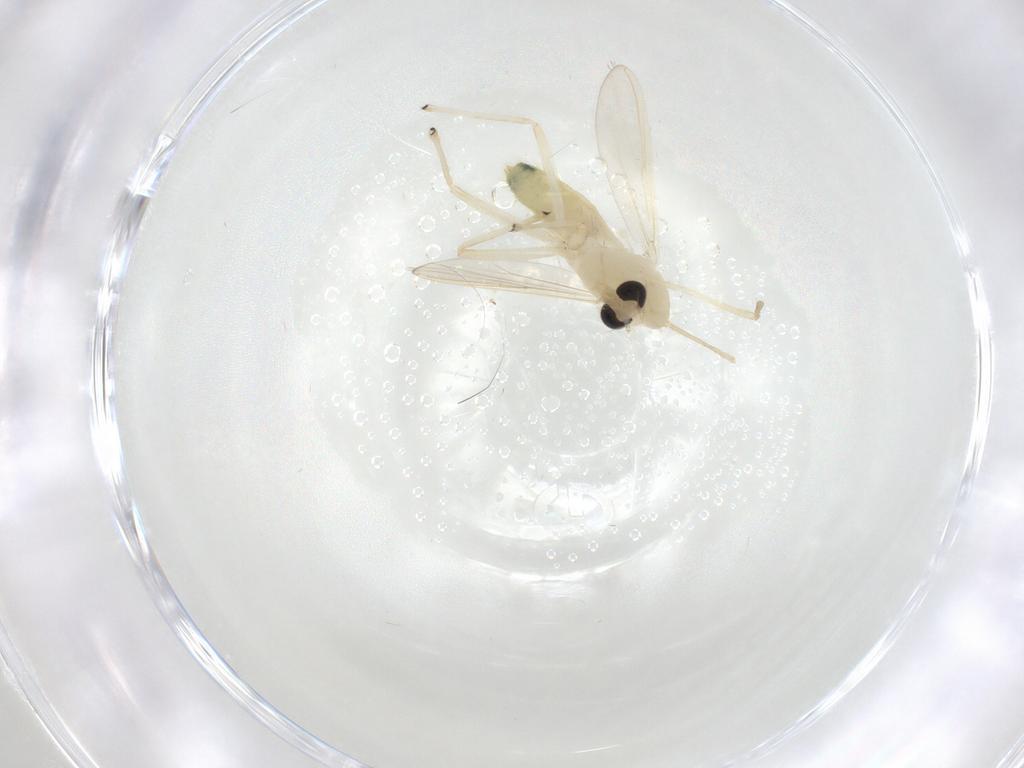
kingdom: Animalia
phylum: Arthropoda
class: Insecta
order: Diptera
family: Chironomidae
